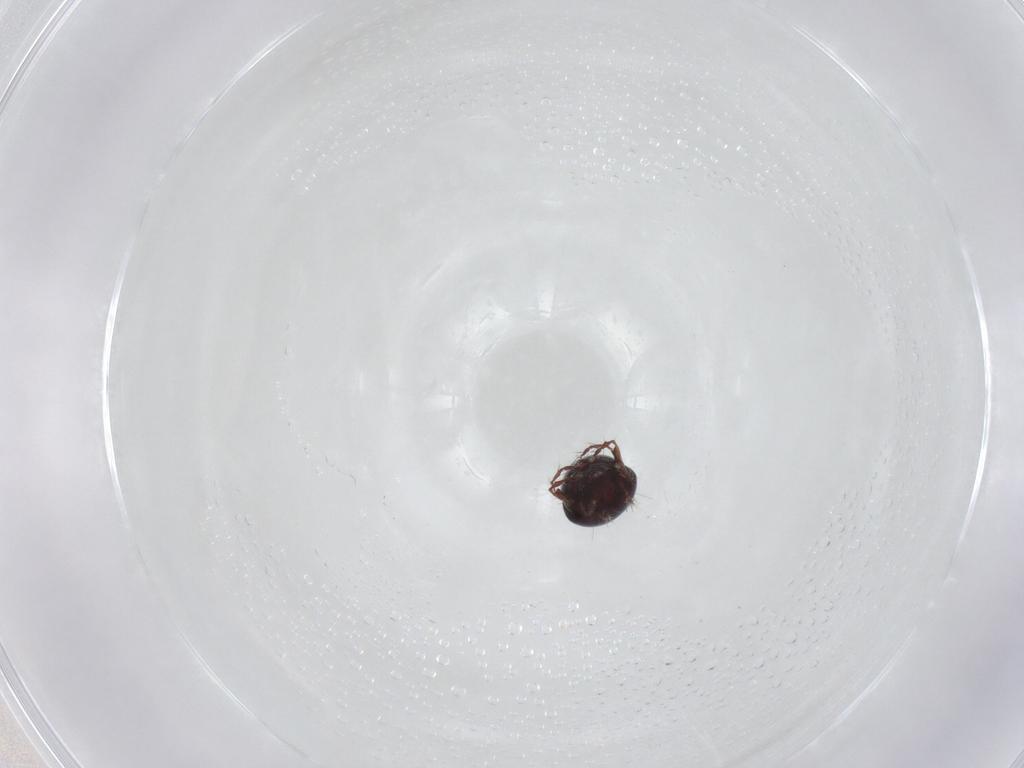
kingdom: Animalia
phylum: Arthropoda
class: Arachnida
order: Sarcoptiformes
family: Ceratoppiidae
